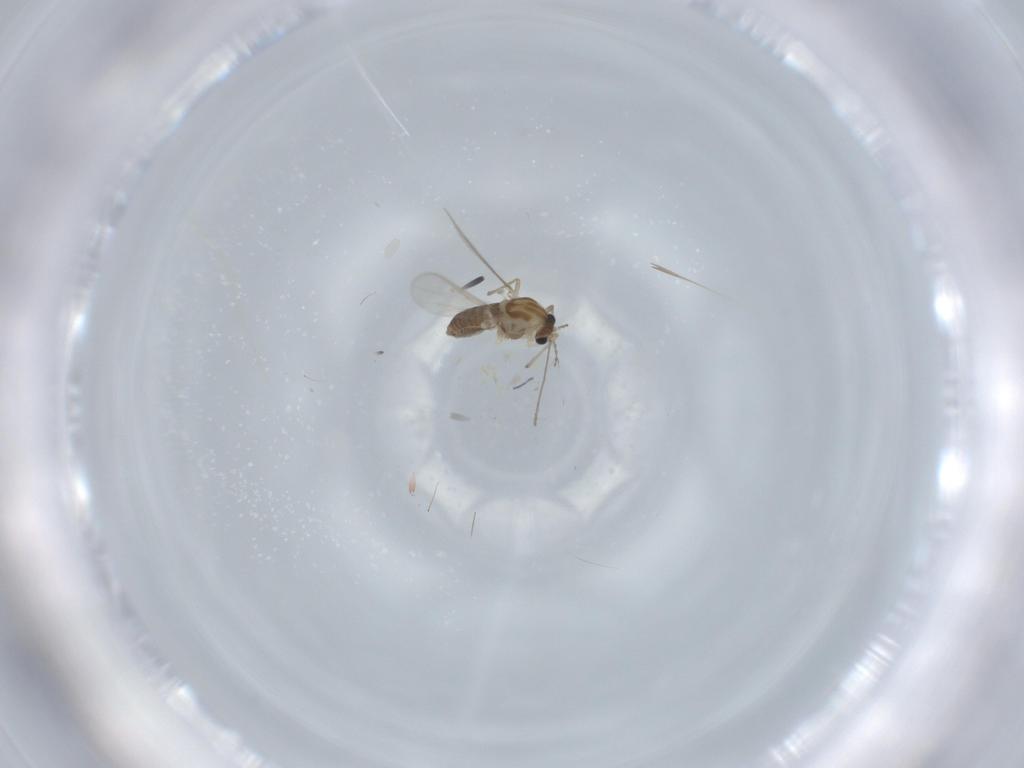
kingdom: Animalia
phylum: Arthropoda
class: Insecta
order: Diptera
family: Cecidomyiidae
